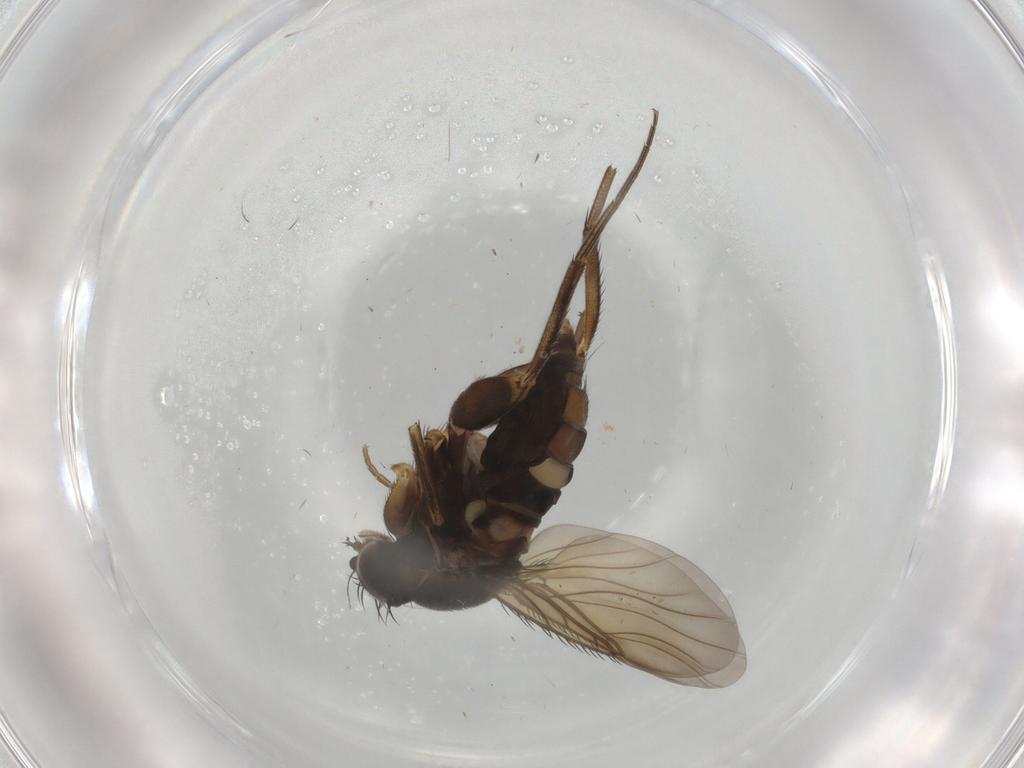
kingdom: Animalia
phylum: Arthropoda
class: Insecta
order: Diptera
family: Phoridae
